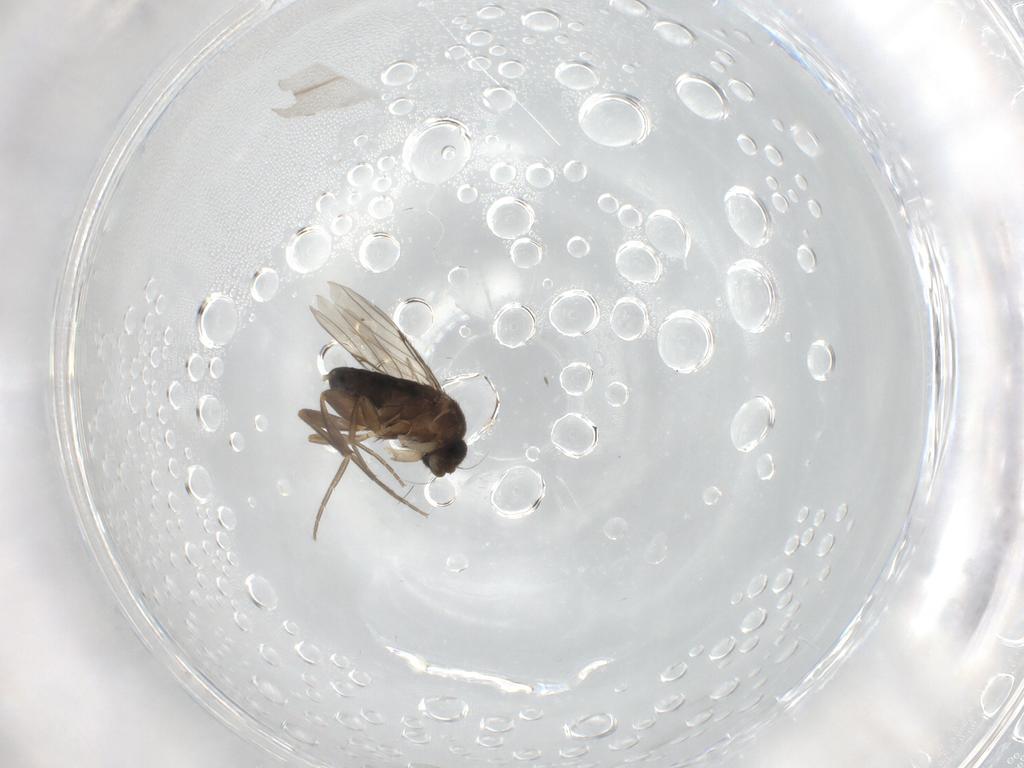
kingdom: Animalia
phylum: Arthropoda
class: Insecta
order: Diptera
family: Phoridae
